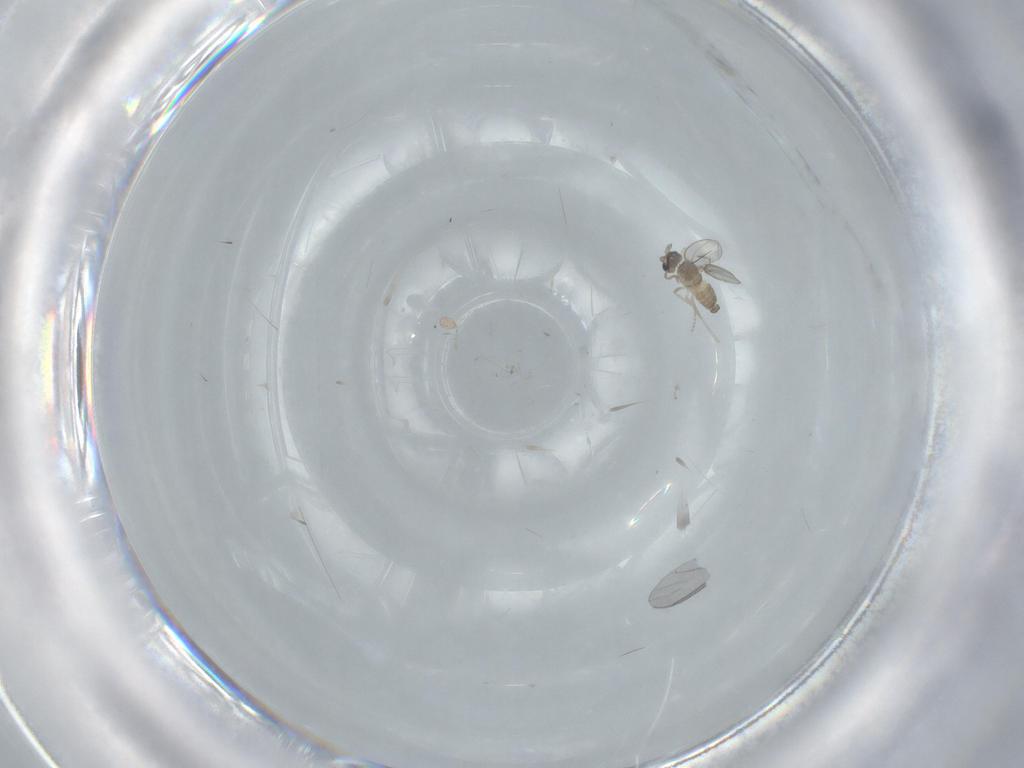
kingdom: Animalia
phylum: Arthropoda
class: Insecta
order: Diptera
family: Cecidomyiidae
